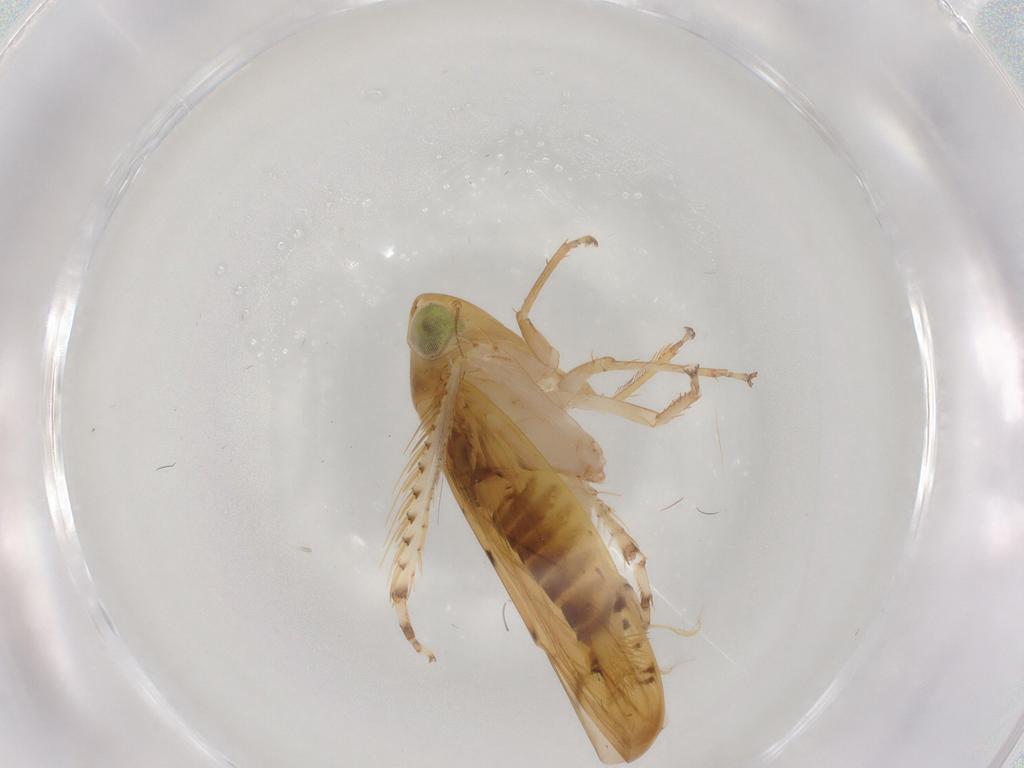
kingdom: Animalia
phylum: Arthropoda
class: Insecta
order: Hemiptera
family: Cicadellidae
